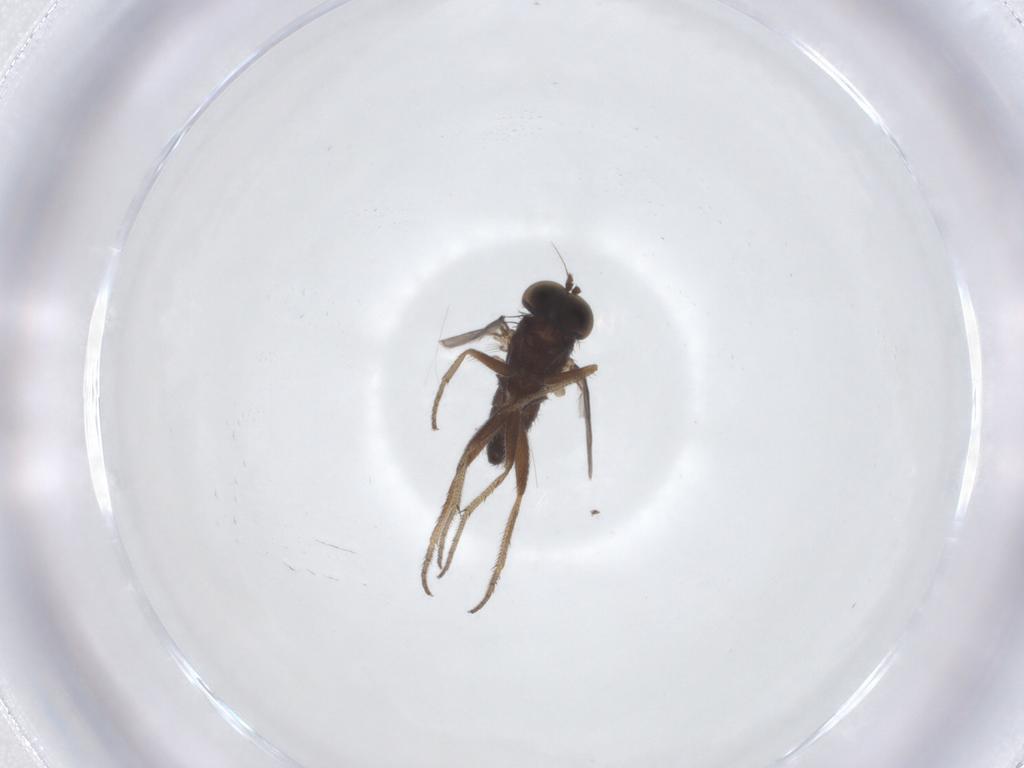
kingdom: Animalia
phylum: Arthropoda
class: Insecta
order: Diptera
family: Dolichopodidae
